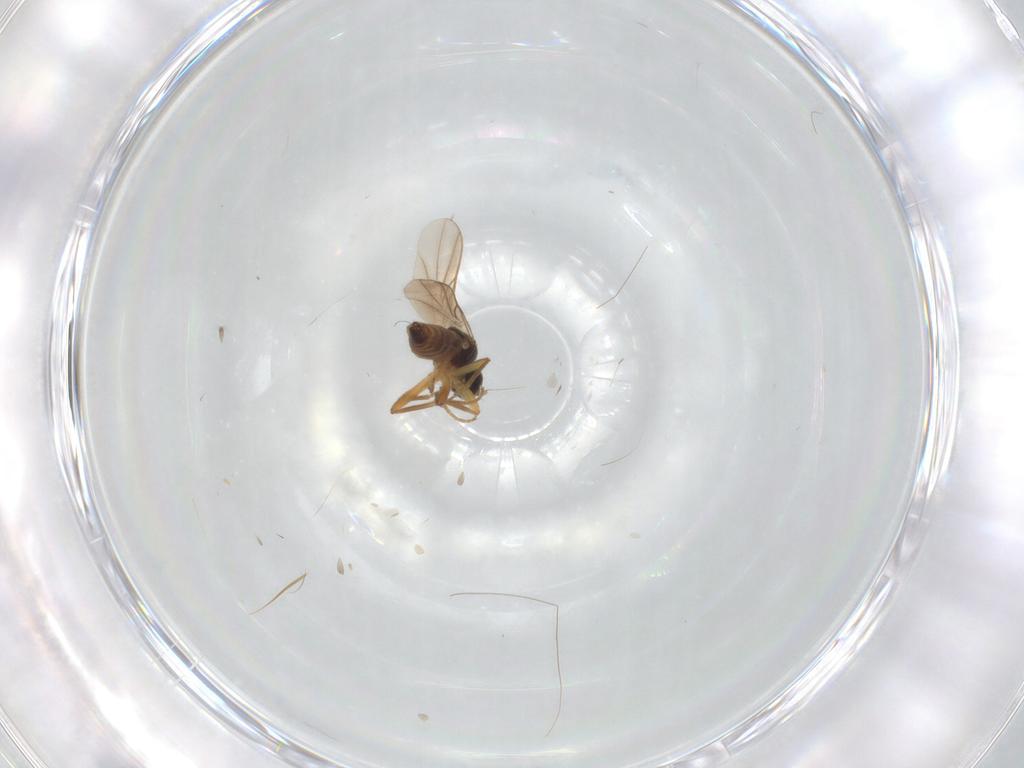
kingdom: Animalia
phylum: Arthropoda
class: Insecta
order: Diptera
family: Hybotidae
